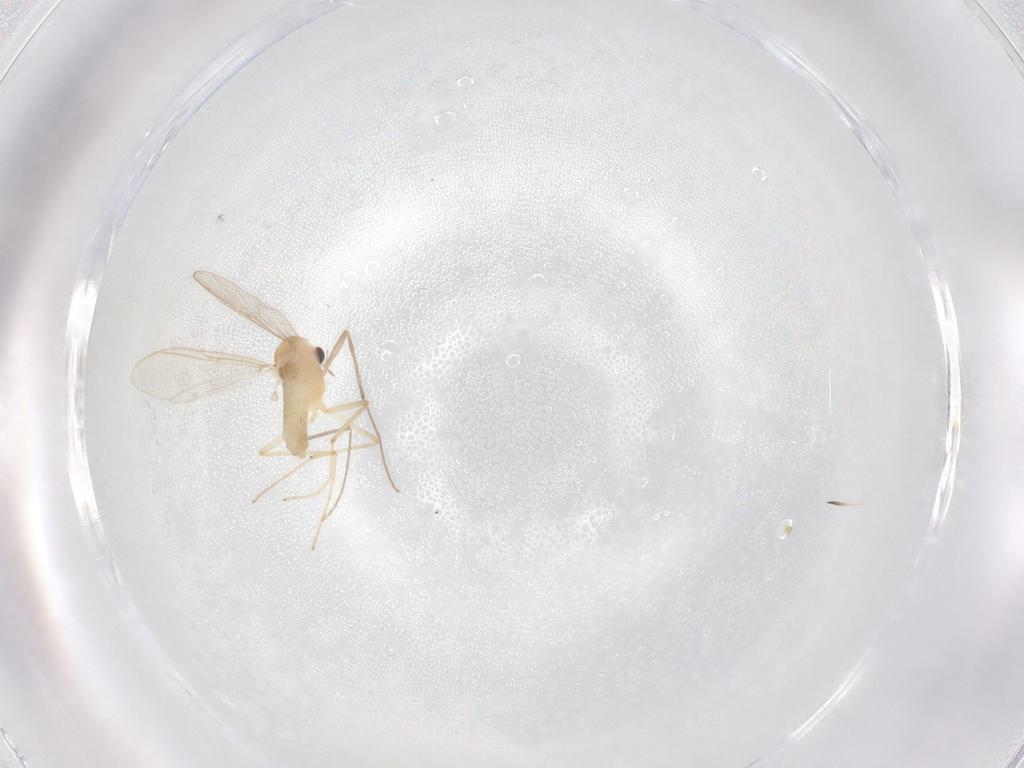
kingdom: Animalia
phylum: Arthropoda
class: Insecta
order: Diptera
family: Chironomidae
